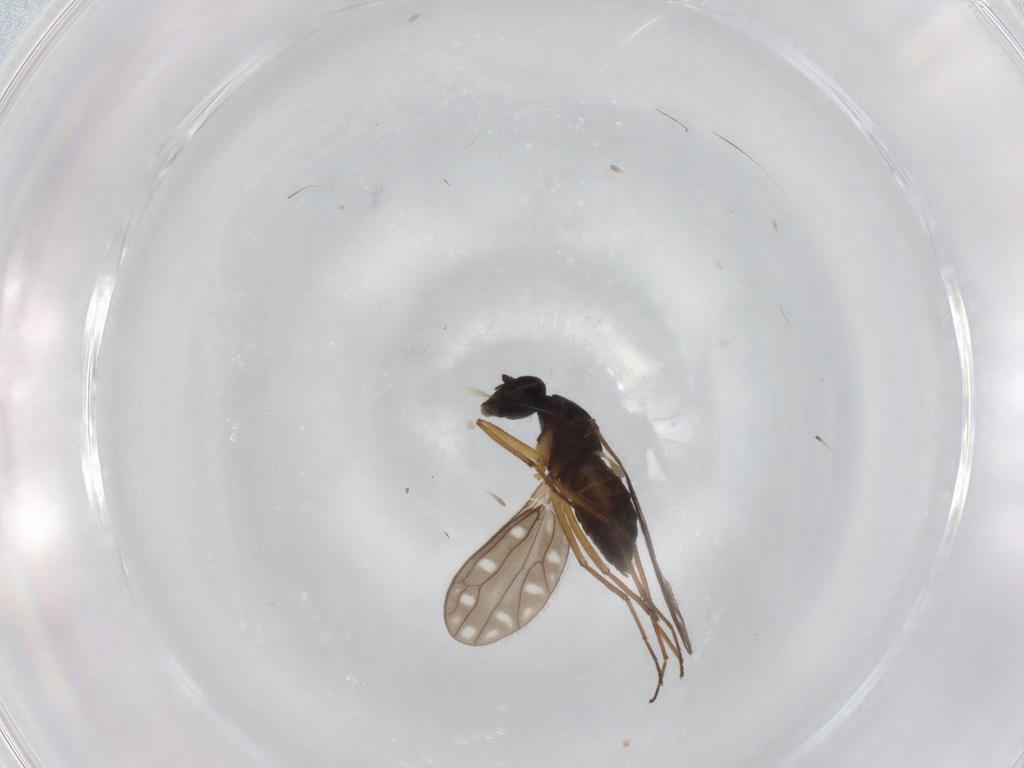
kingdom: Animalia
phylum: Arthropoda
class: Insecta
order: Diptera
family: Empididae
